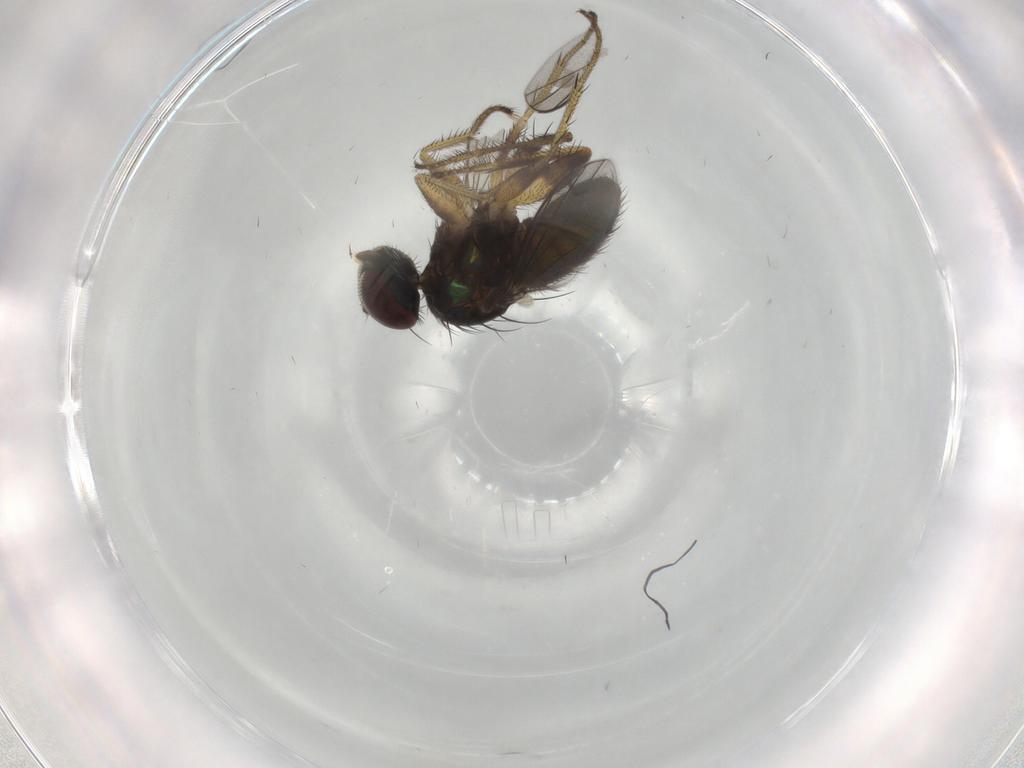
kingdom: Animalia
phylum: Arthropoda
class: Insecta
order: Diptera
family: Dolichopodidae
